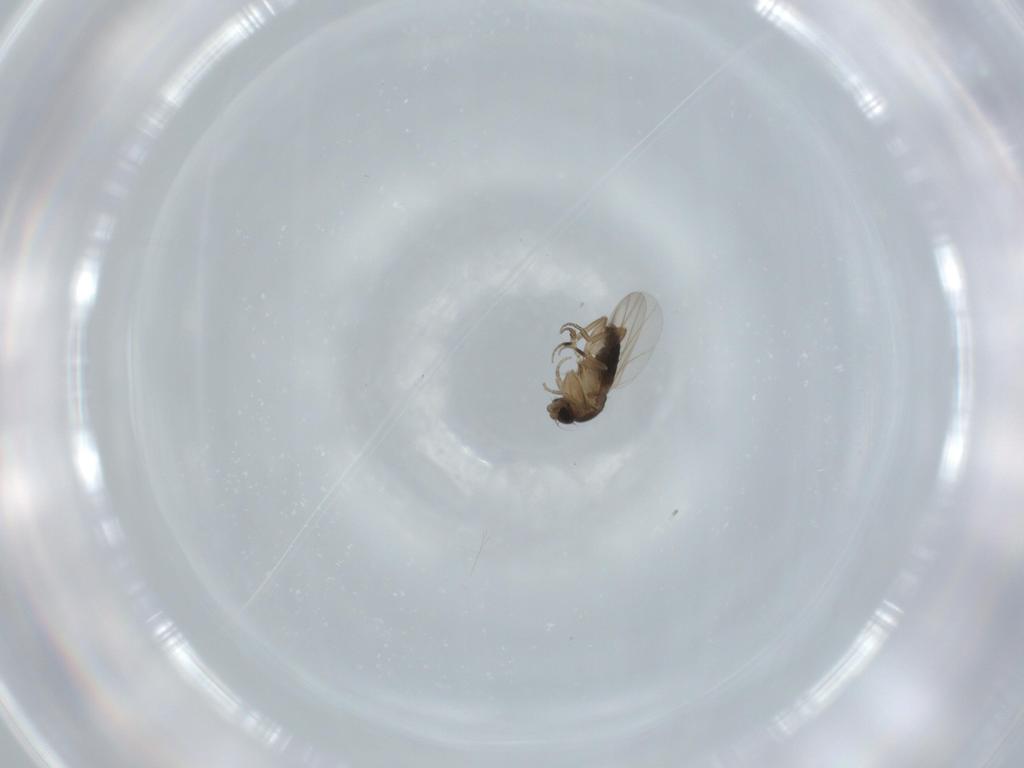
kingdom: Animalia
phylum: Arthropoda
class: Insecta
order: Diptera
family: Phoridae
